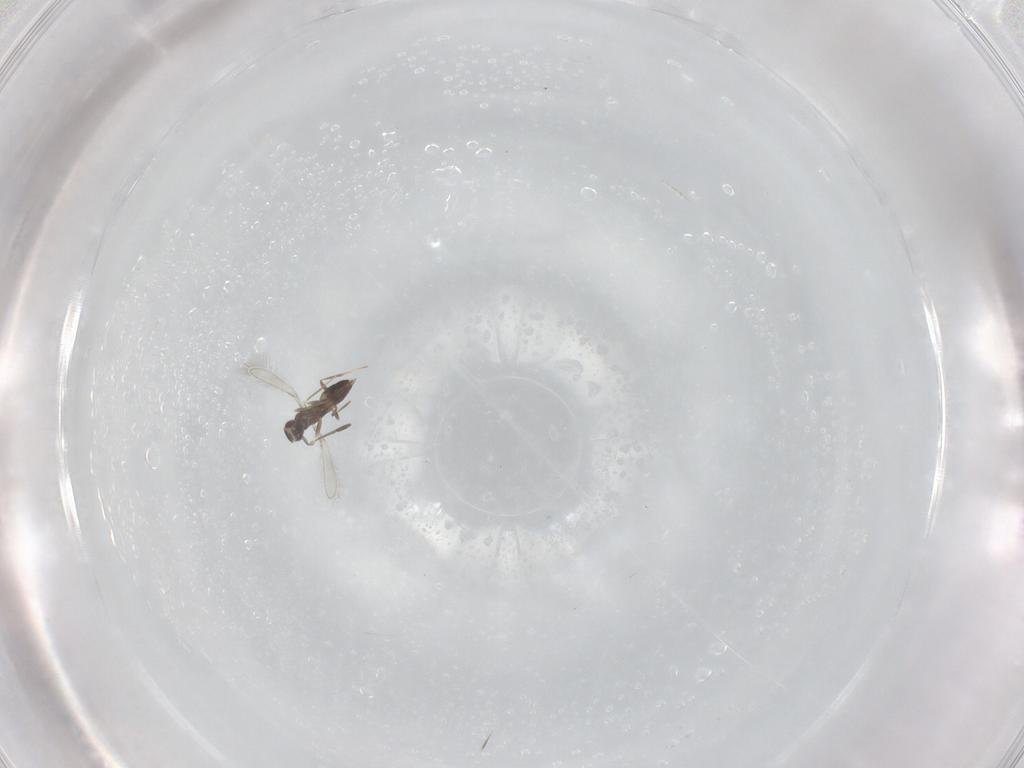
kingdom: Animalia
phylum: Arthropoda
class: Insecta
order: Hymenoptera
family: Mymaridae
